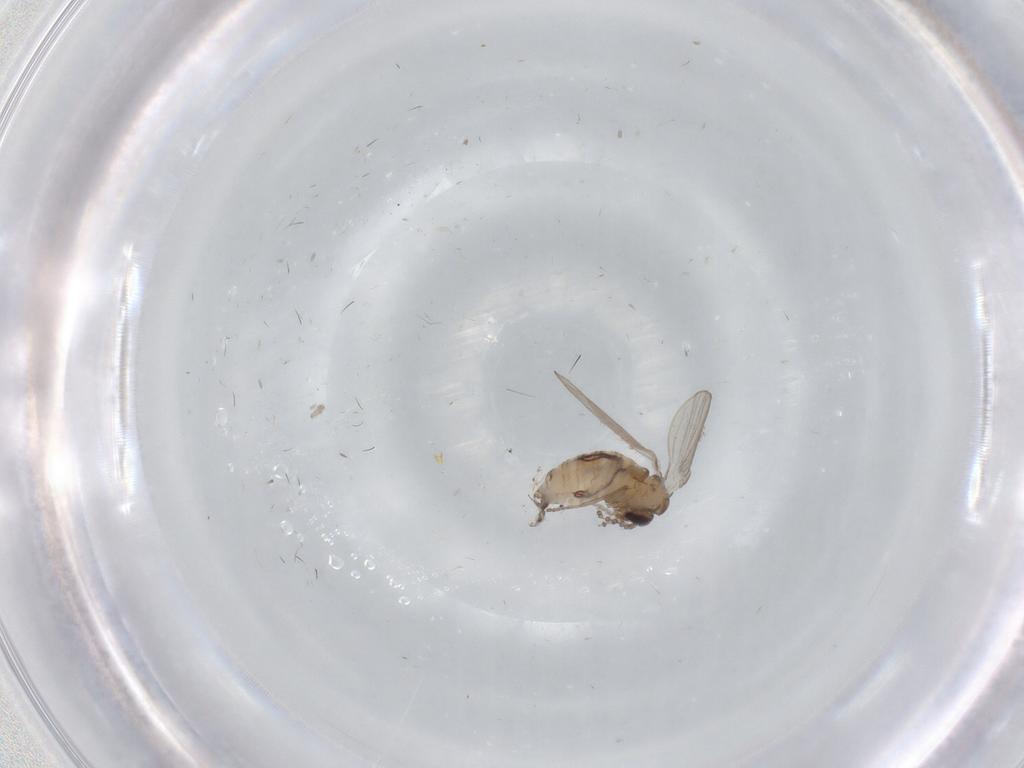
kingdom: Animalia
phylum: Arthropoda
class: Insecta
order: Diptera
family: Psychodidae
